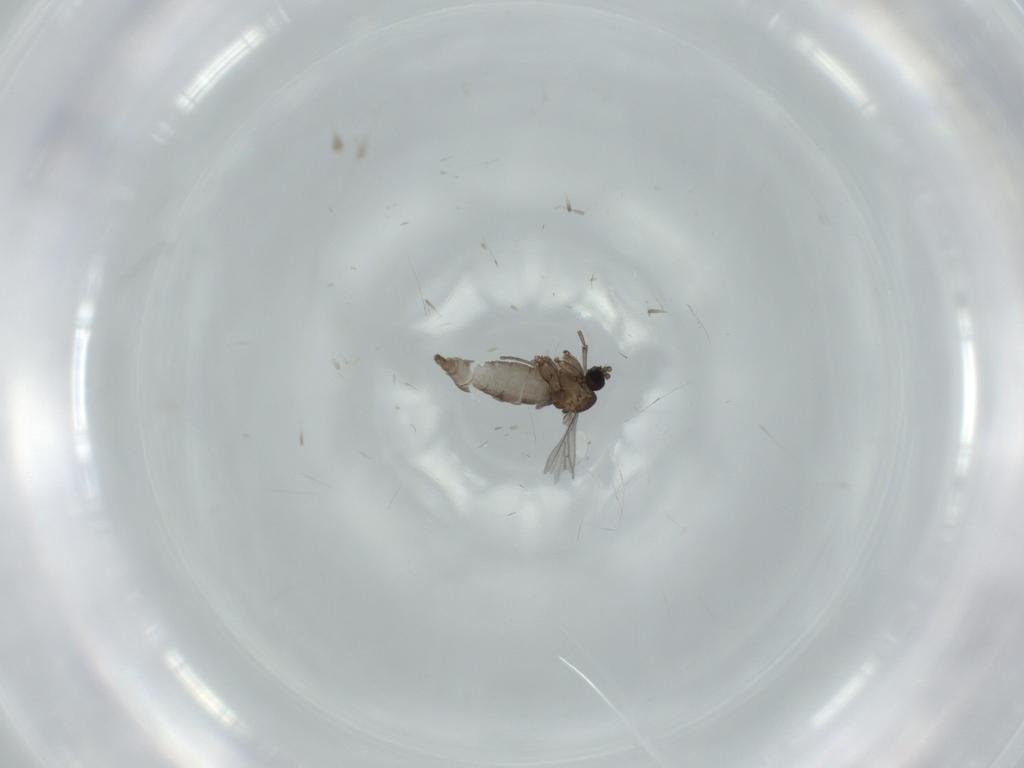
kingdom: Animalia
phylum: Arthropoda
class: Insecta
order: Diptera
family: Sciaridae
